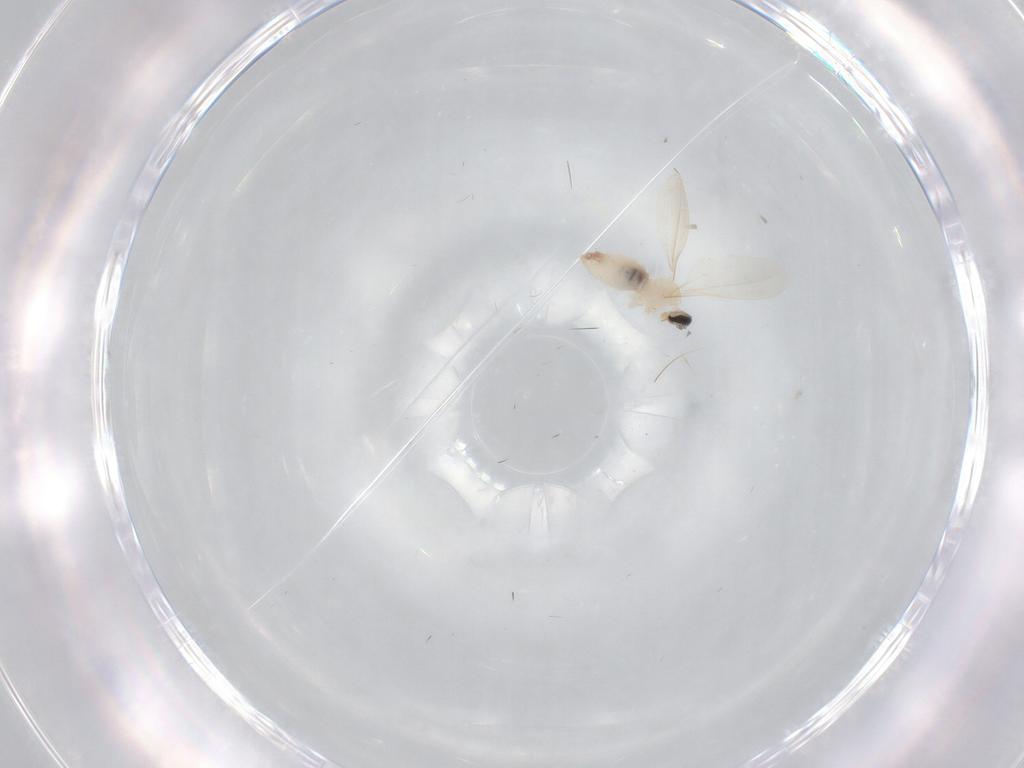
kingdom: Animalia
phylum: Arthropoda
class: Insecta
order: Diptera
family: Cecidomyiidae
